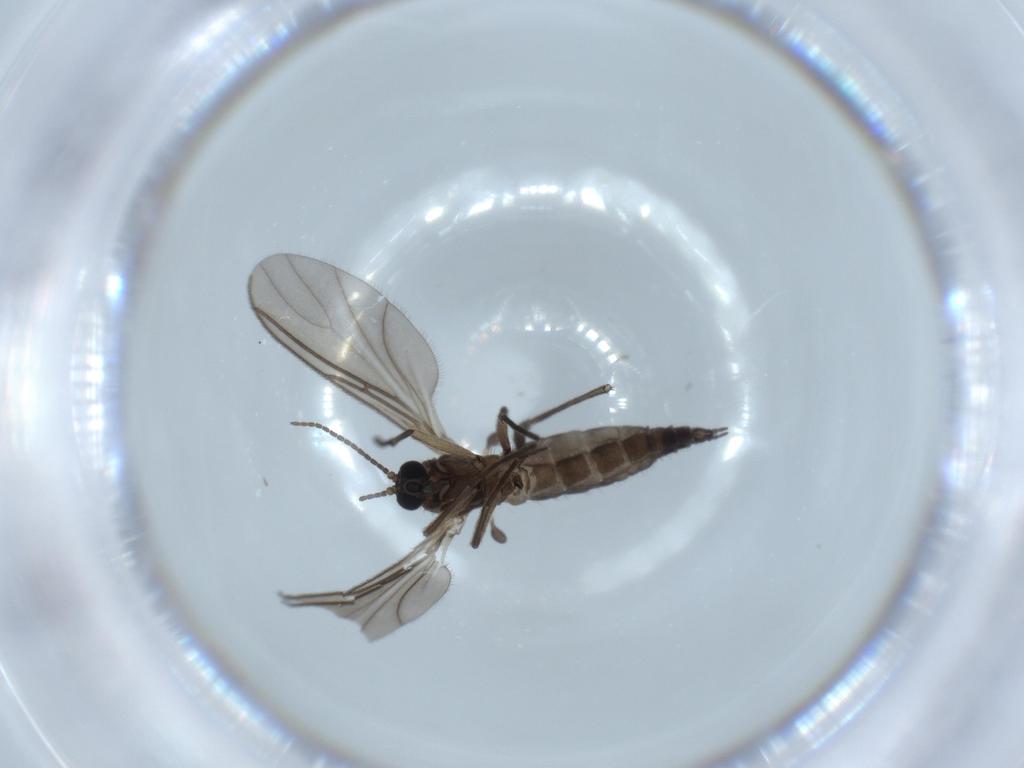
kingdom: Animalia
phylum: Arthropoda
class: Insecta
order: Diptera
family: Sciaridae
